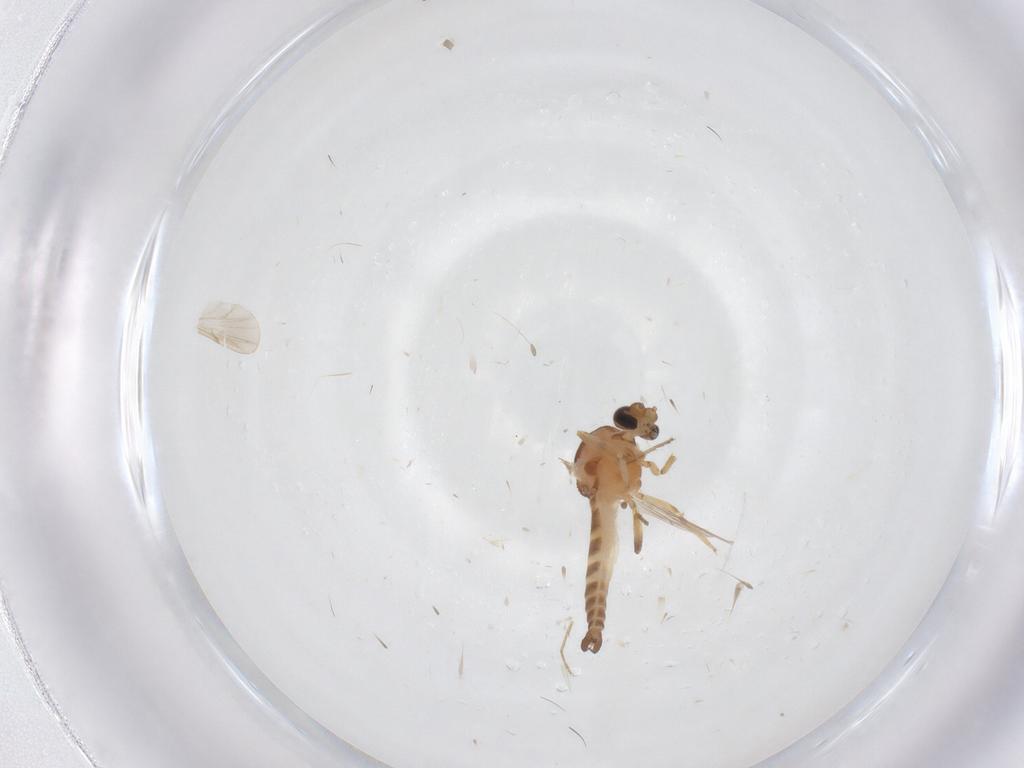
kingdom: Animalia
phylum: Arthropoda
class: Insecta
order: Diptera
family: Ceratopogonidae
